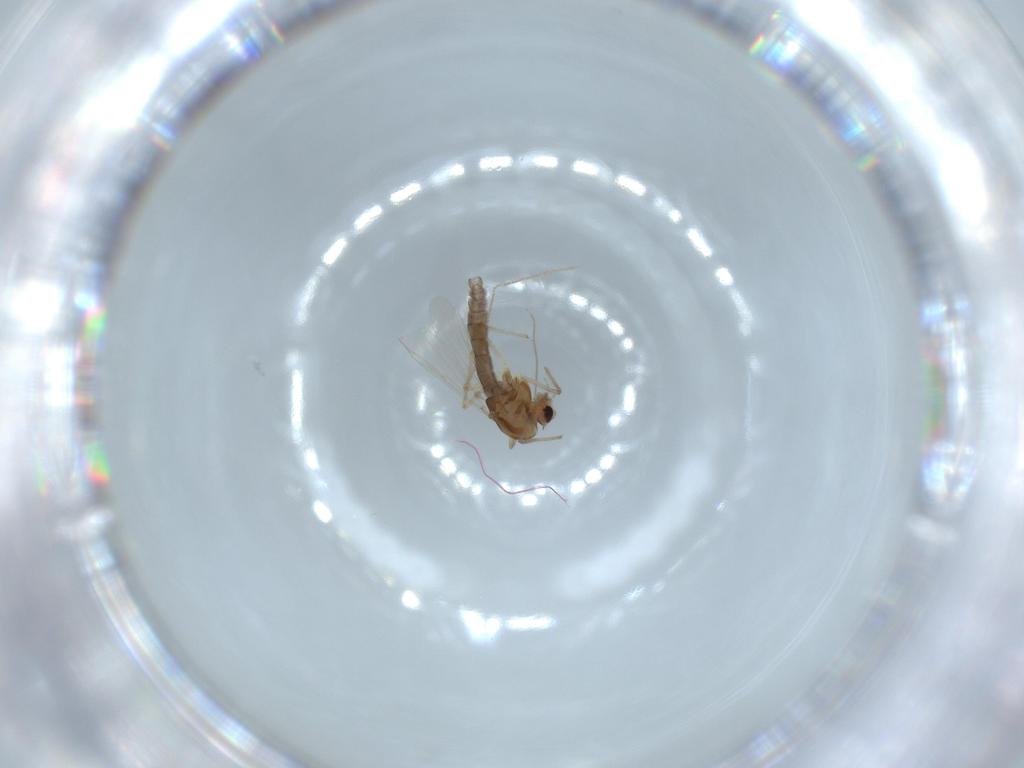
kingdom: Animalia
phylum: Arthropoda
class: Insecta
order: Diptera
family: Chironomidae
